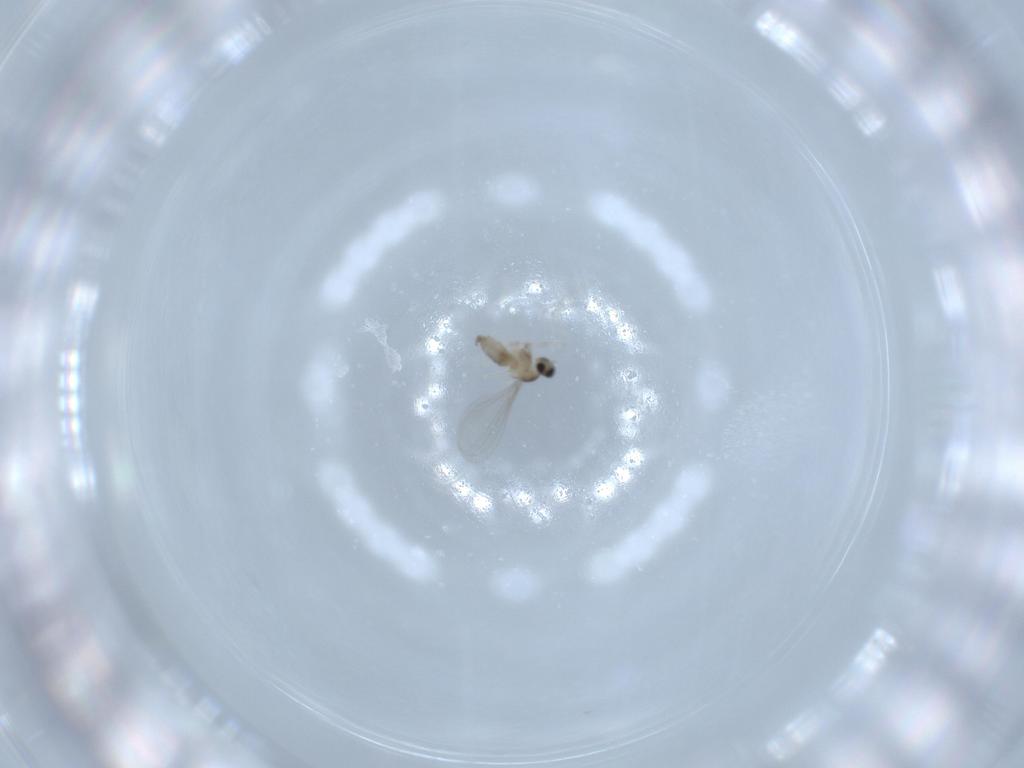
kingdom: Animalia
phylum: Arthropoda
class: Insecta
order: Diptera
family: Cecidomyiidae
